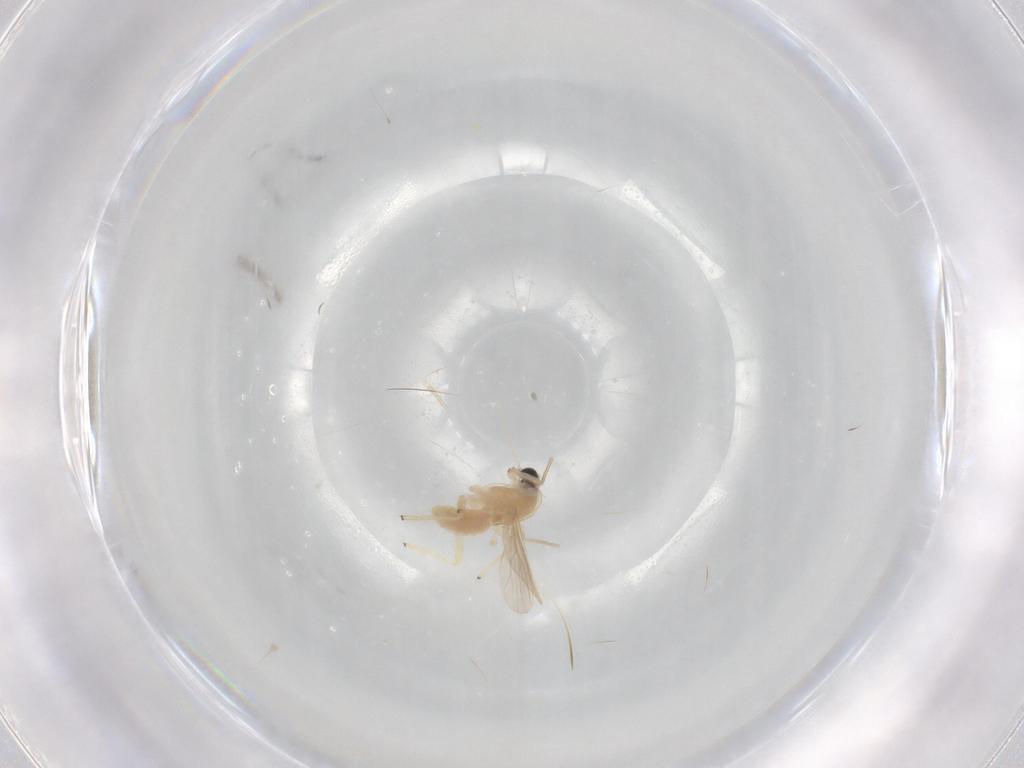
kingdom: Animalia
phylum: Arthropoda
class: Insecta
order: Diptera
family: Chironomidae
